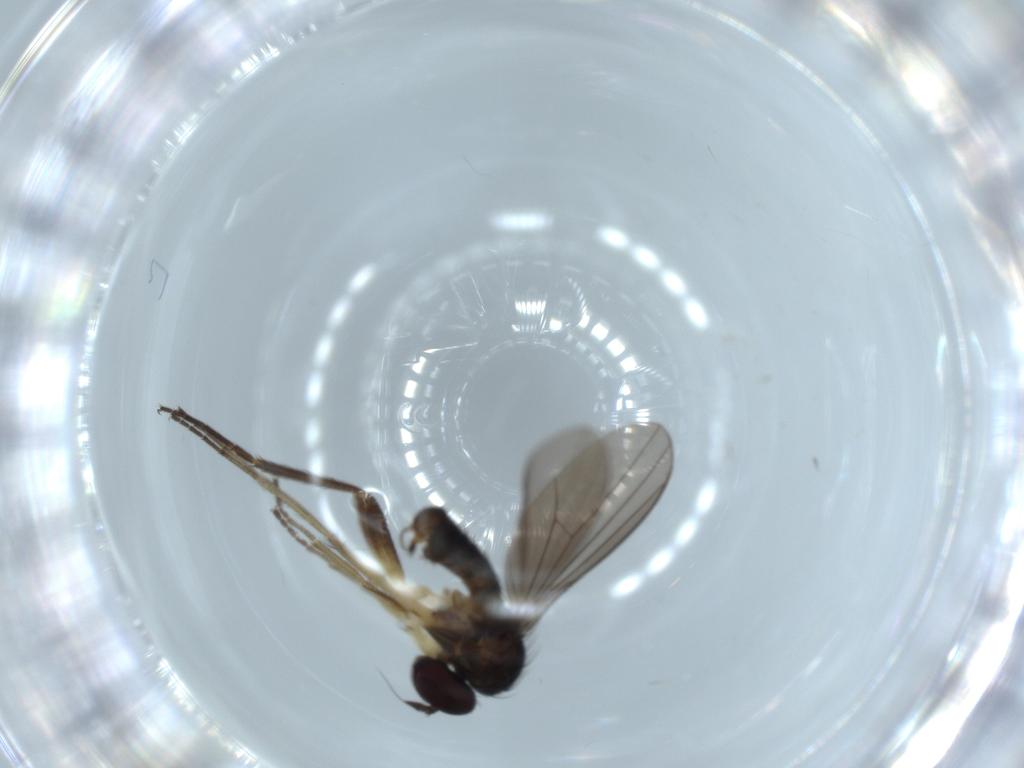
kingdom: Animalia
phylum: Arthropoda
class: Insecta
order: Diptera
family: Dolichopodidae
